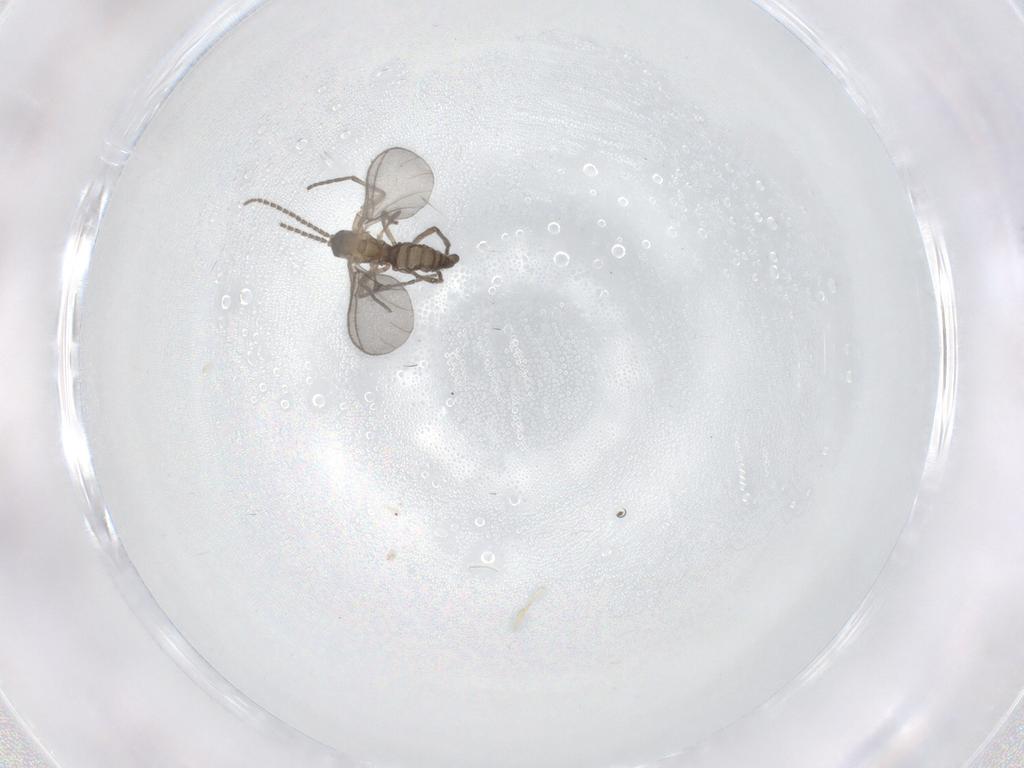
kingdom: Animalia
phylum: Arthropoda
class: Insecta
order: Diptera
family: Sciaridae
